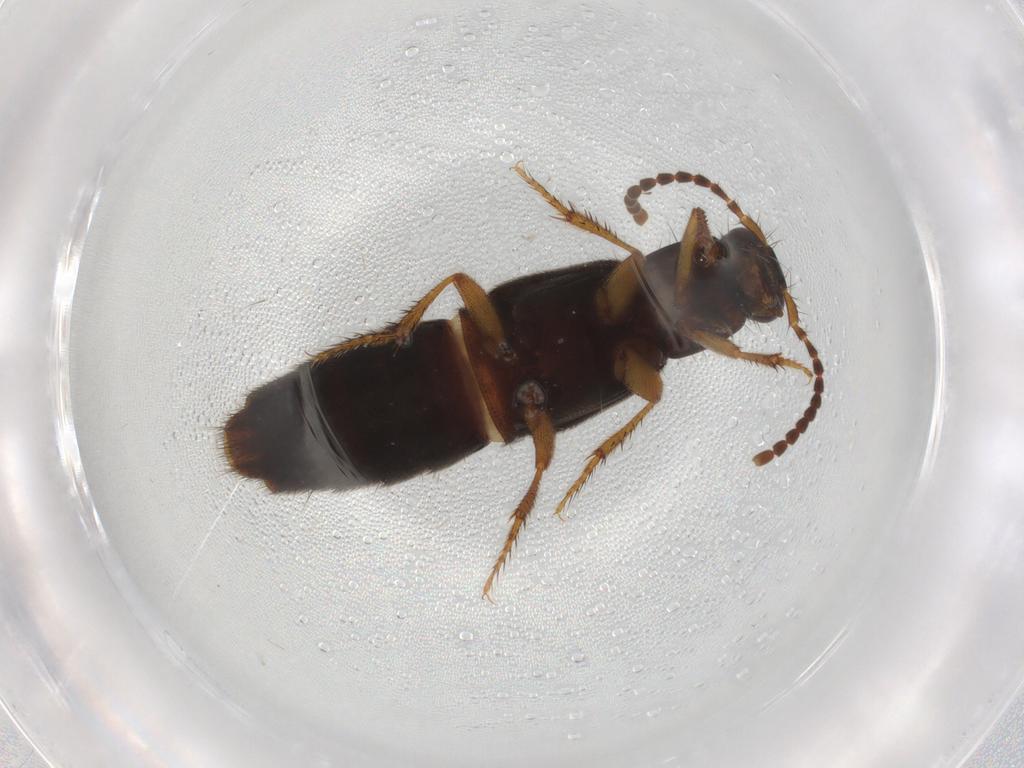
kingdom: Animalia
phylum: Arthropoda
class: Insecta
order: Coleoptera
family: Staphylinidae
